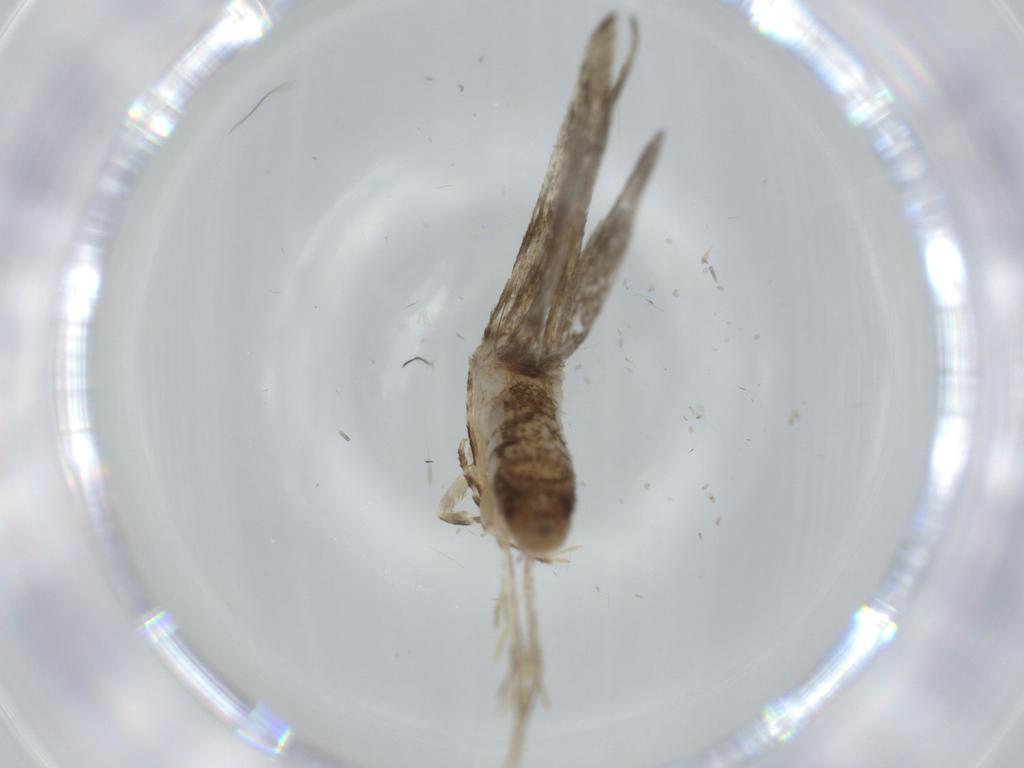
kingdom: Animalia
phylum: Arthropoda
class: Insecta
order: Lepidoptera
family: Tineidae
